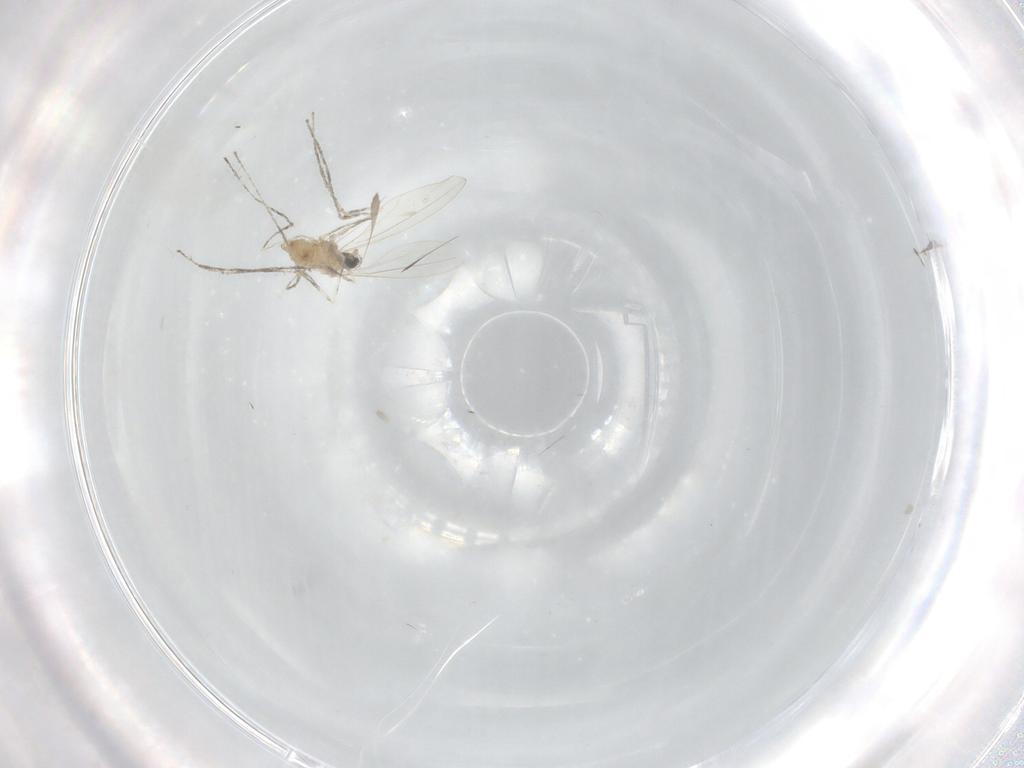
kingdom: Animalia
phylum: Arthropoda
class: Insecta
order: Diptera
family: Cecidomyiidae
